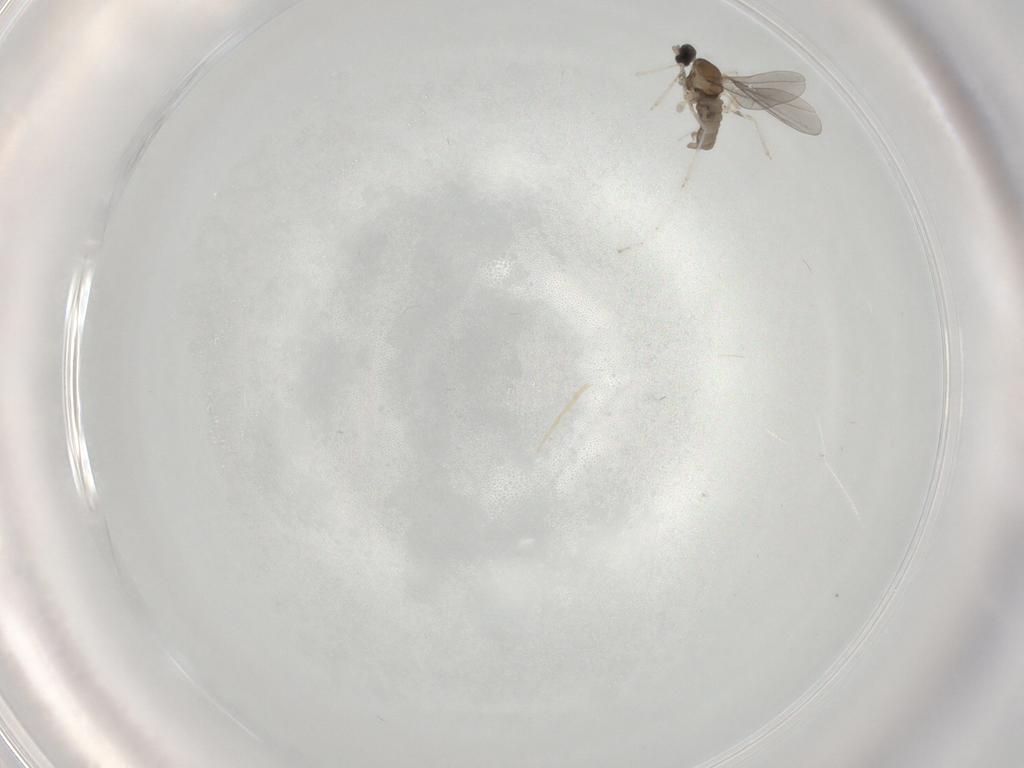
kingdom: Animalia
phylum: Arthropoda
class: Insecta
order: Diptera
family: Cecidomyiidae
